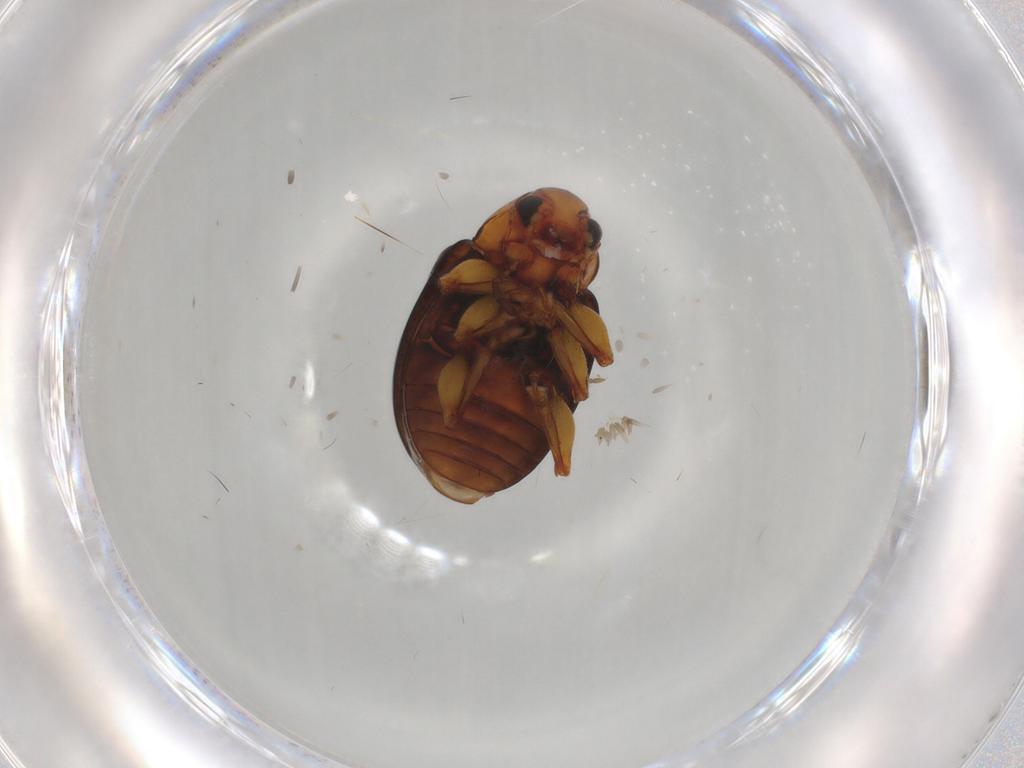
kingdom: Animalia
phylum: Arthropoda
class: Insecta
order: Coleoptera
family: Chrysomelidae
